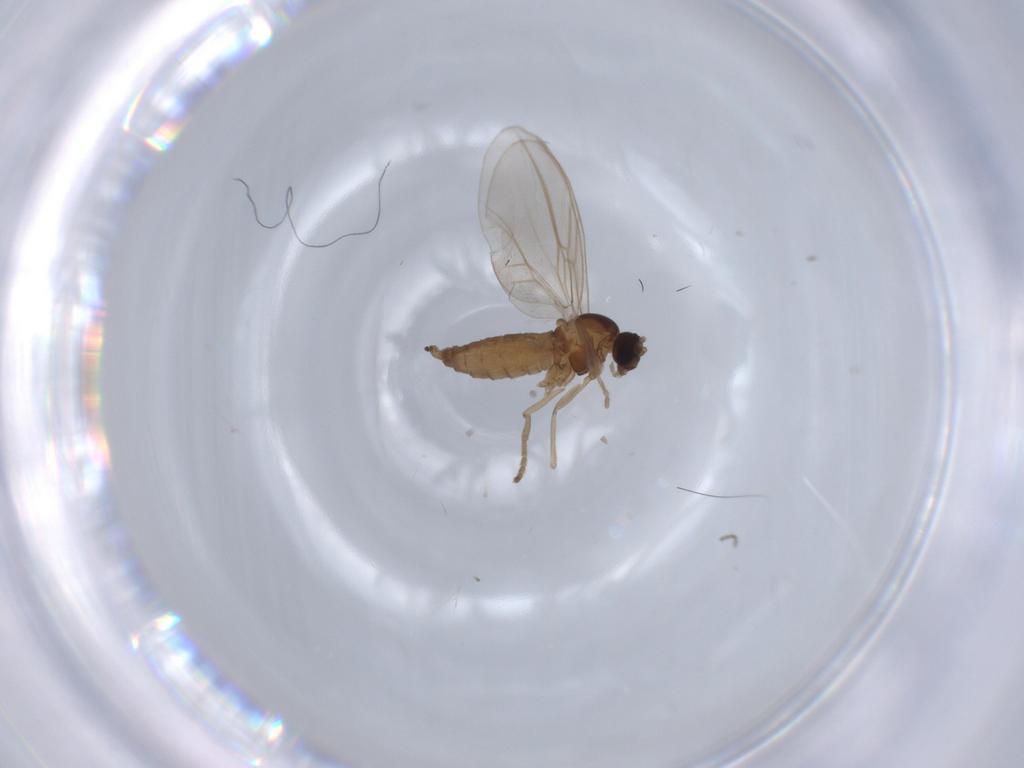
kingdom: Animalia
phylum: Arthropoda
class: Insecta
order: Diptera
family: Cecidomyiidae
